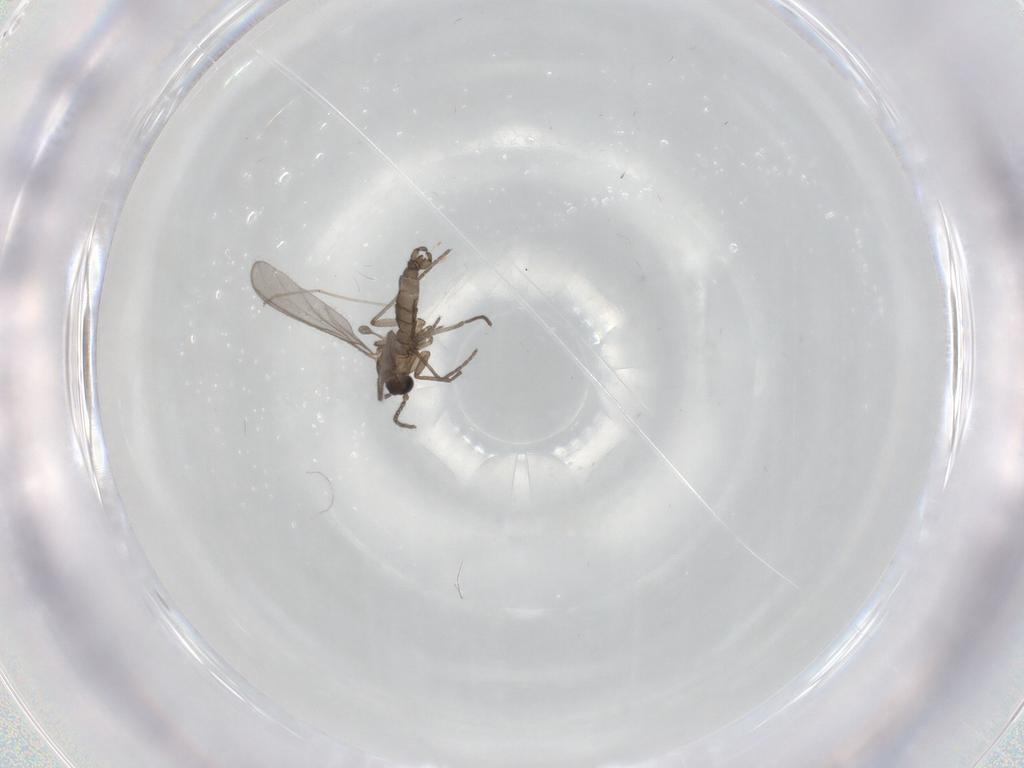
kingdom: Animalia
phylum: Arthropoda
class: Insecta
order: Diptera
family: Sciaridae
